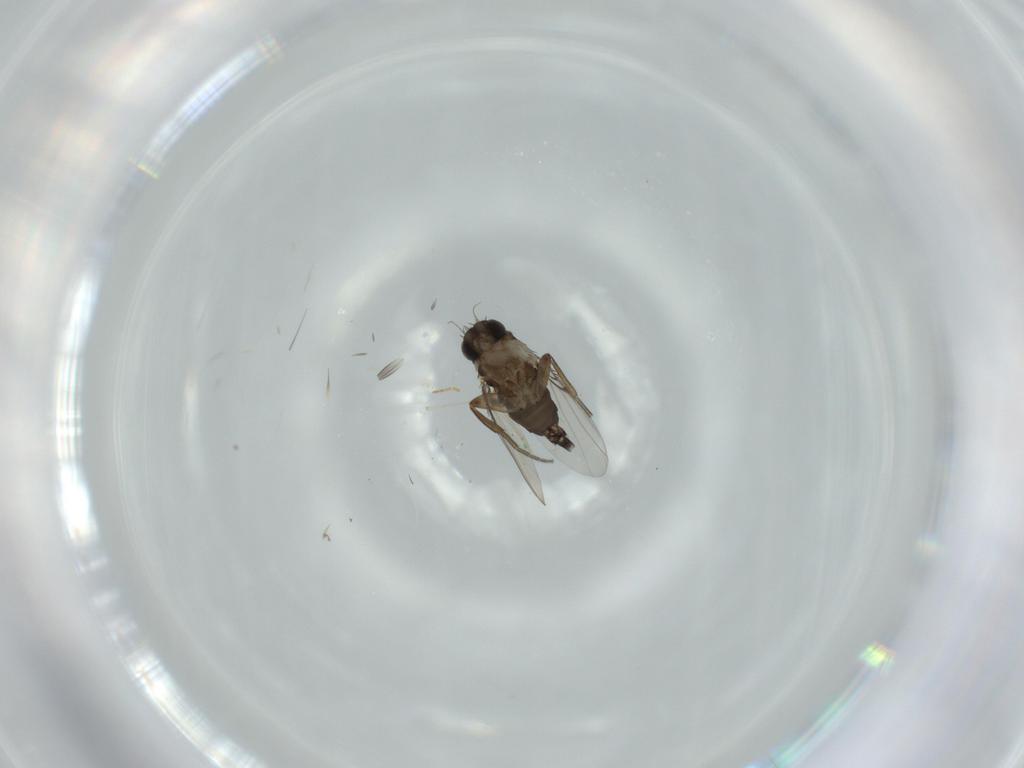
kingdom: Animalia
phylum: Arthropoda
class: Insecta
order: Diptera
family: Phoridae
